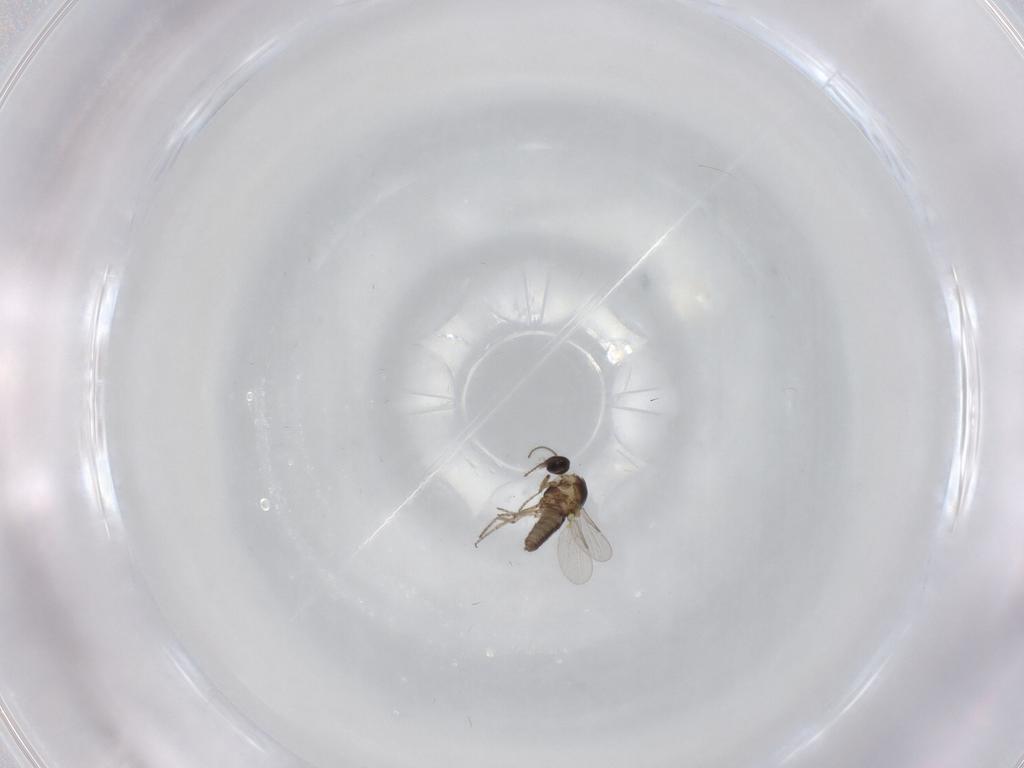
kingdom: Animalia
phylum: Arthropoda
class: Insecta
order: Diptera
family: Ceratopogonidae
